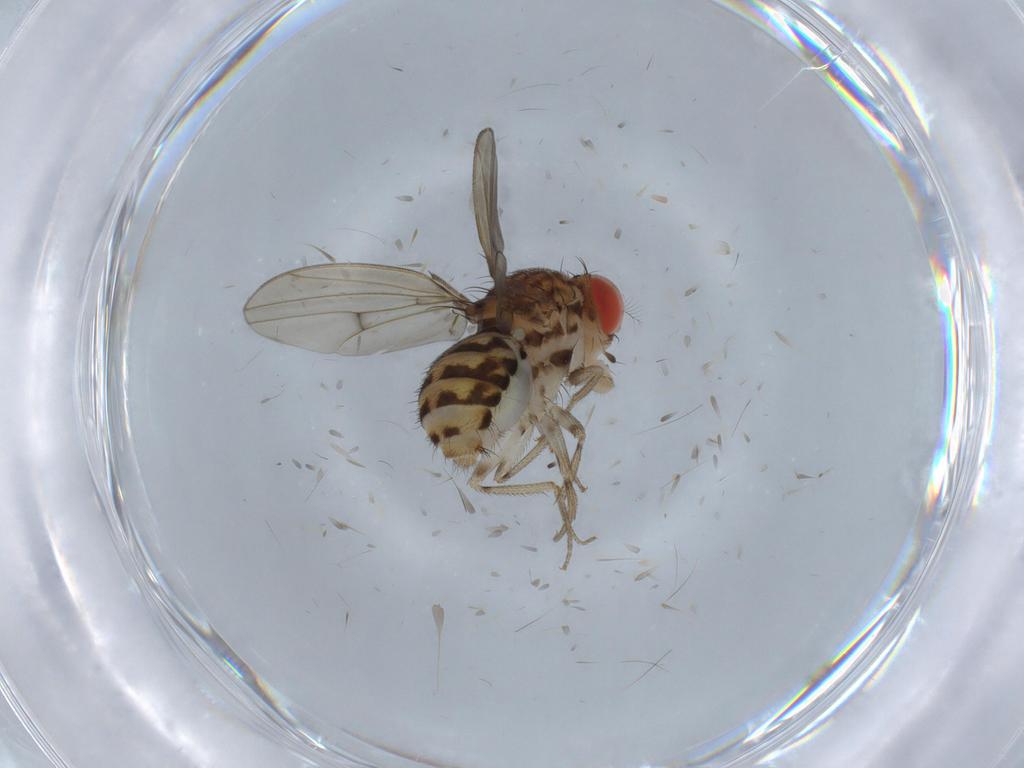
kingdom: Animalia
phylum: Arthropoda
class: Insecta
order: Diptera
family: Drosophilidae
